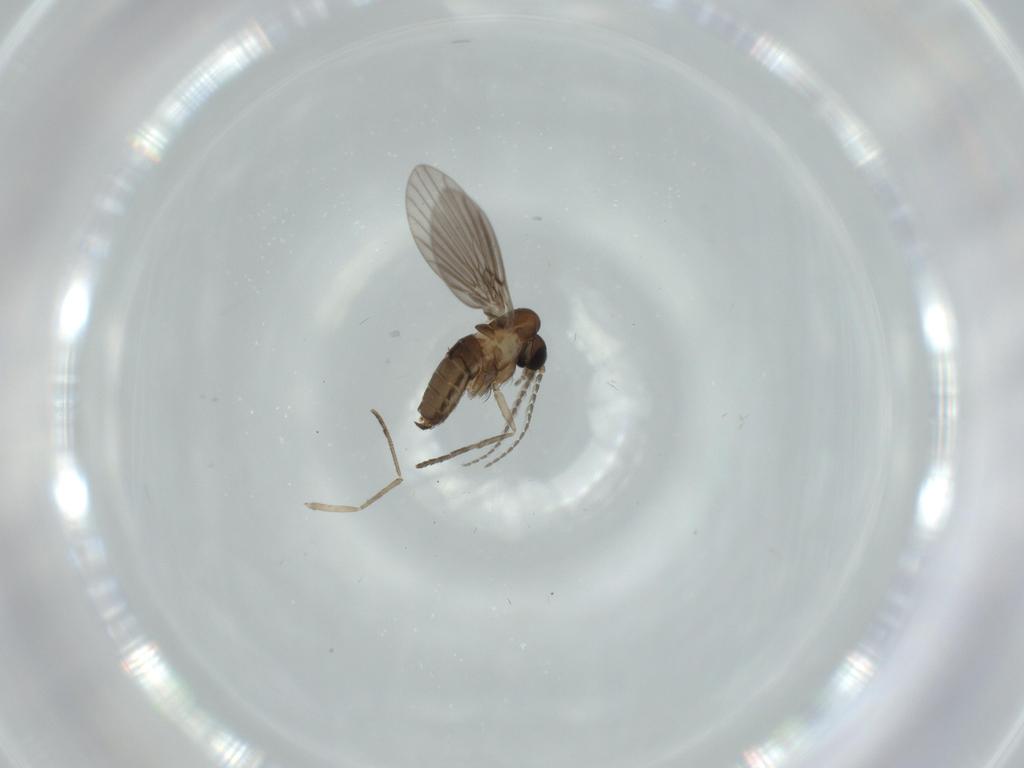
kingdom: Animalia
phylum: Arthropoda
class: Insecta
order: Diptera
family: Psychodidae
